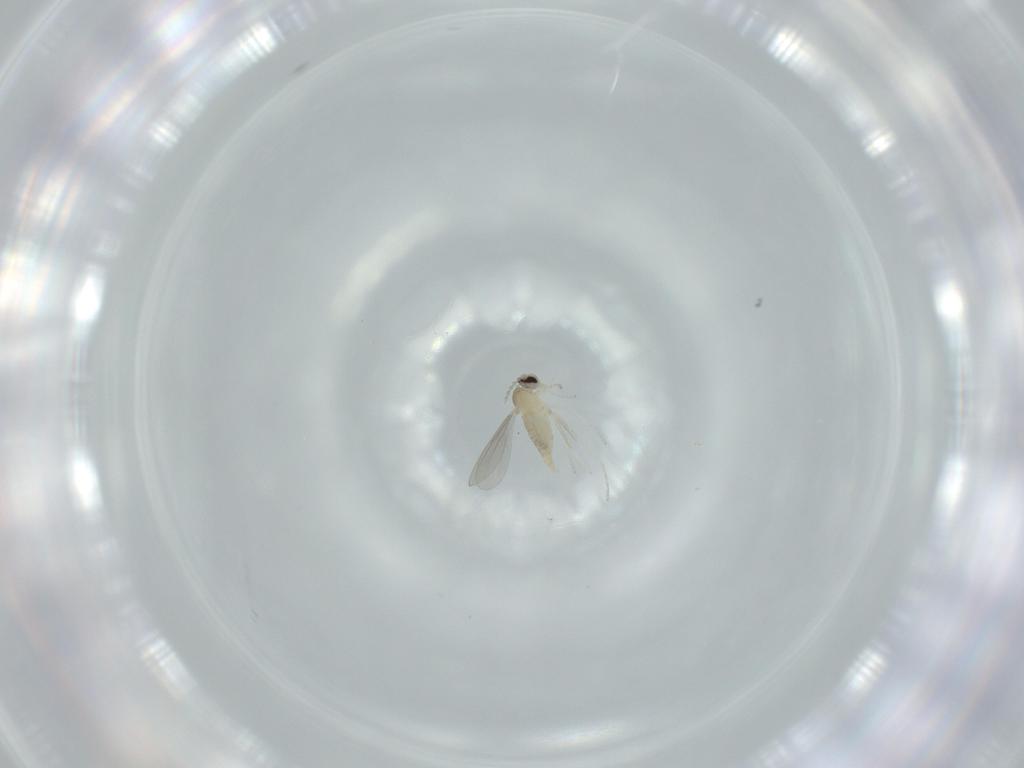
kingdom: Animalia
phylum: Arthropoda
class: Insecta
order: Diptera
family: Cecidomyiidae
